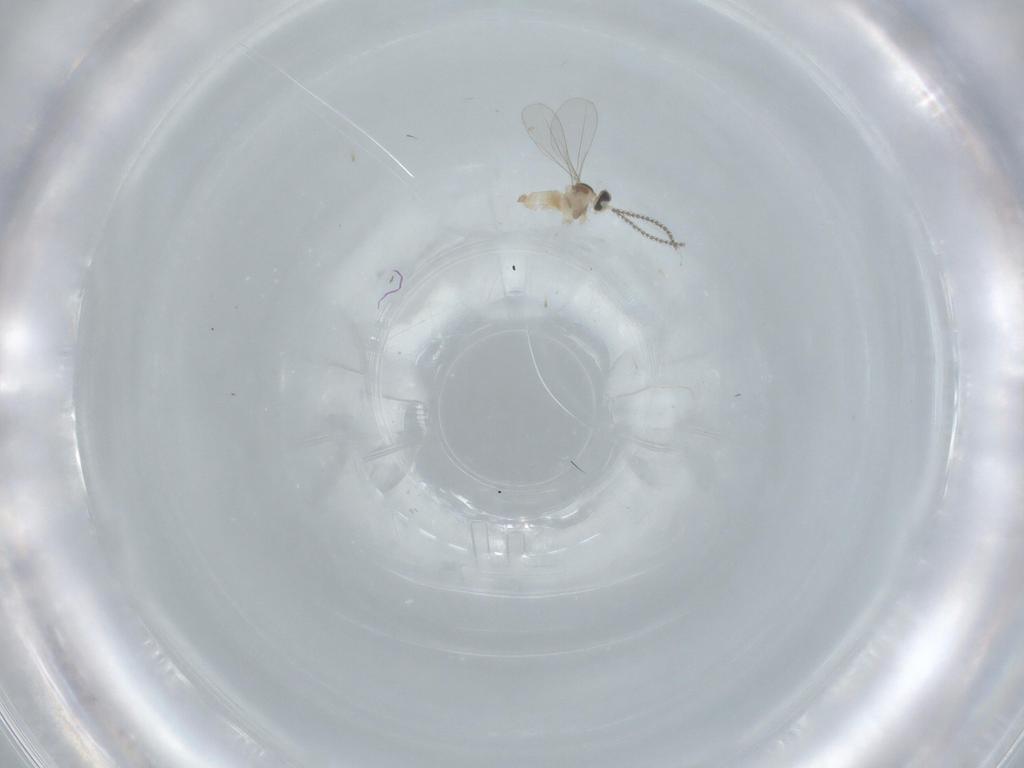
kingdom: Animalia
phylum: Arthropoda
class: Insecta
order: Diptera
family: Cecidomyiidae
